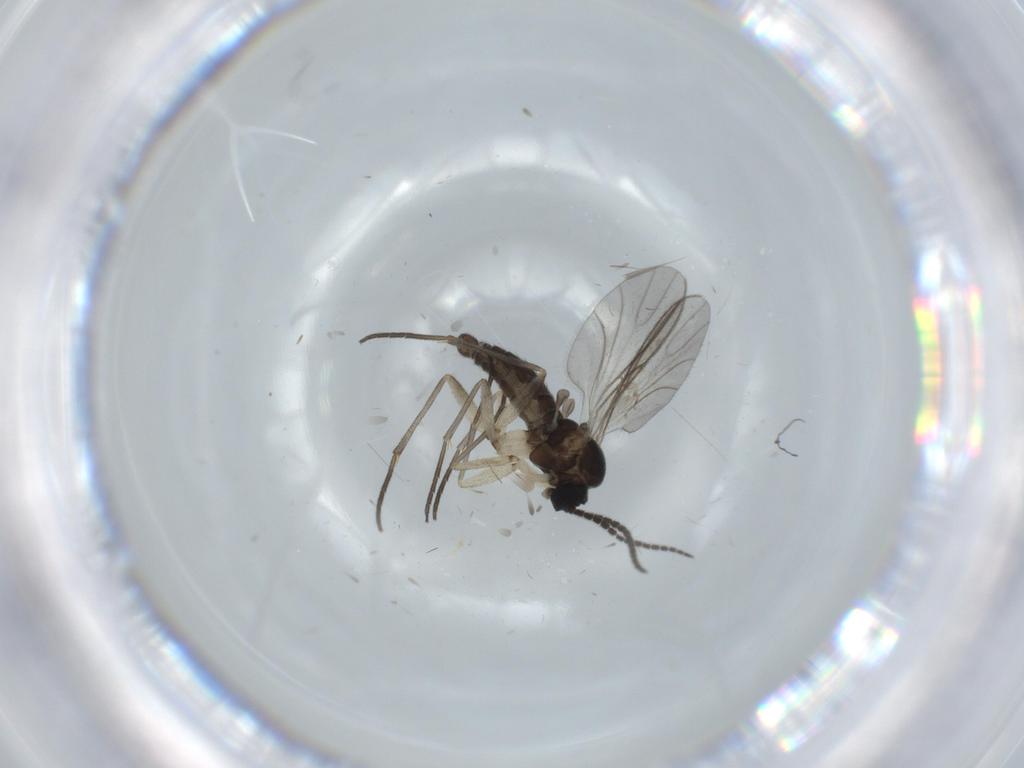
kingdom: Animalia
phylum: Arthropoda
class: Insecta
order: Diptera
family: Sciaridae
